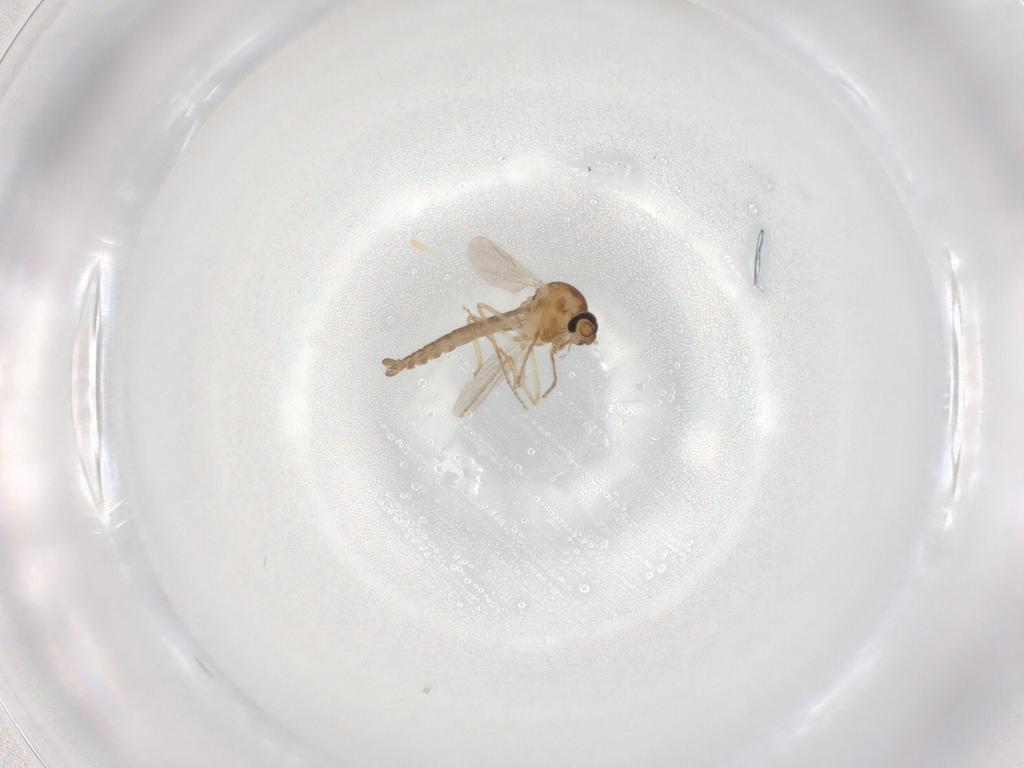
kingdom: Animalia
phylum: Arthropoda
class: Insecta
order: Diptera
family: Ceratopogonidae
